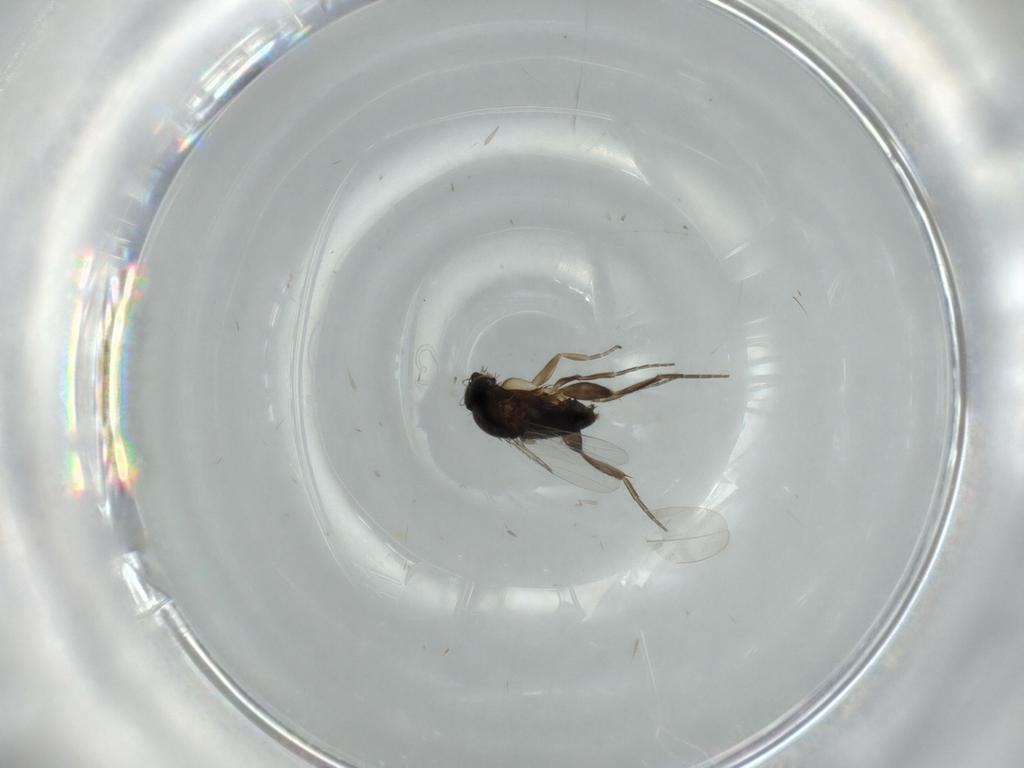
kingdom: Animalia
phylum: Arthropoda
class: Insecta
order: Diptera
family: Phoridae
